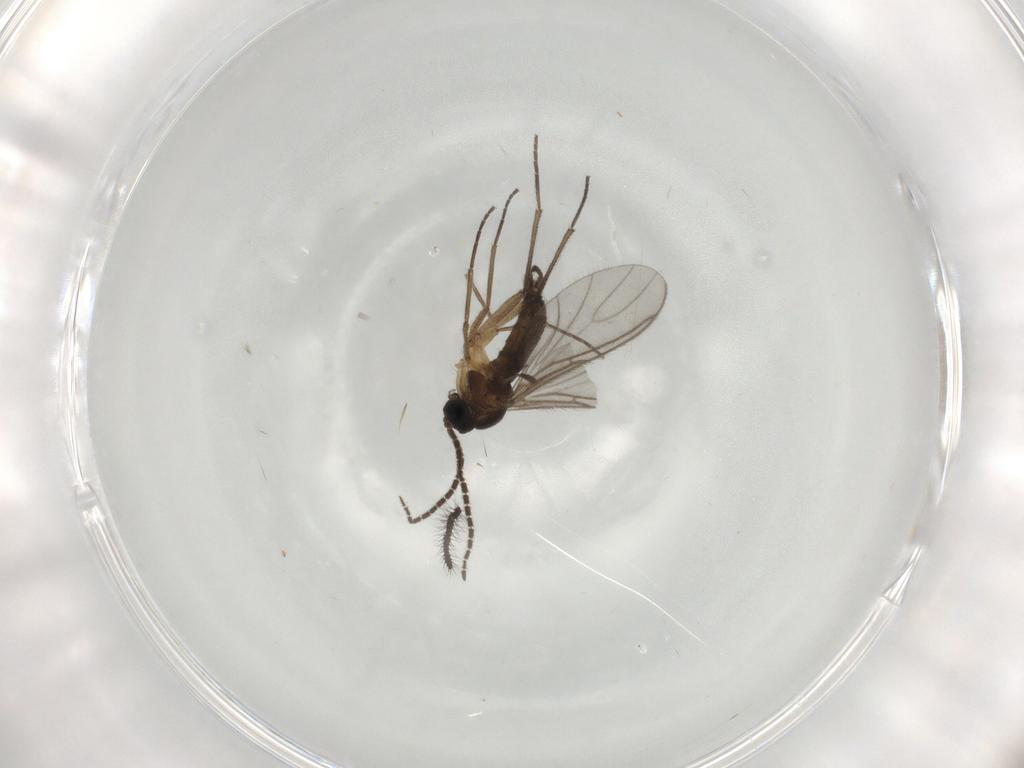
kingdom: Animalia
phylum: Arthropoda
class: Insecta
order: Diptera
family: Sciaridae
